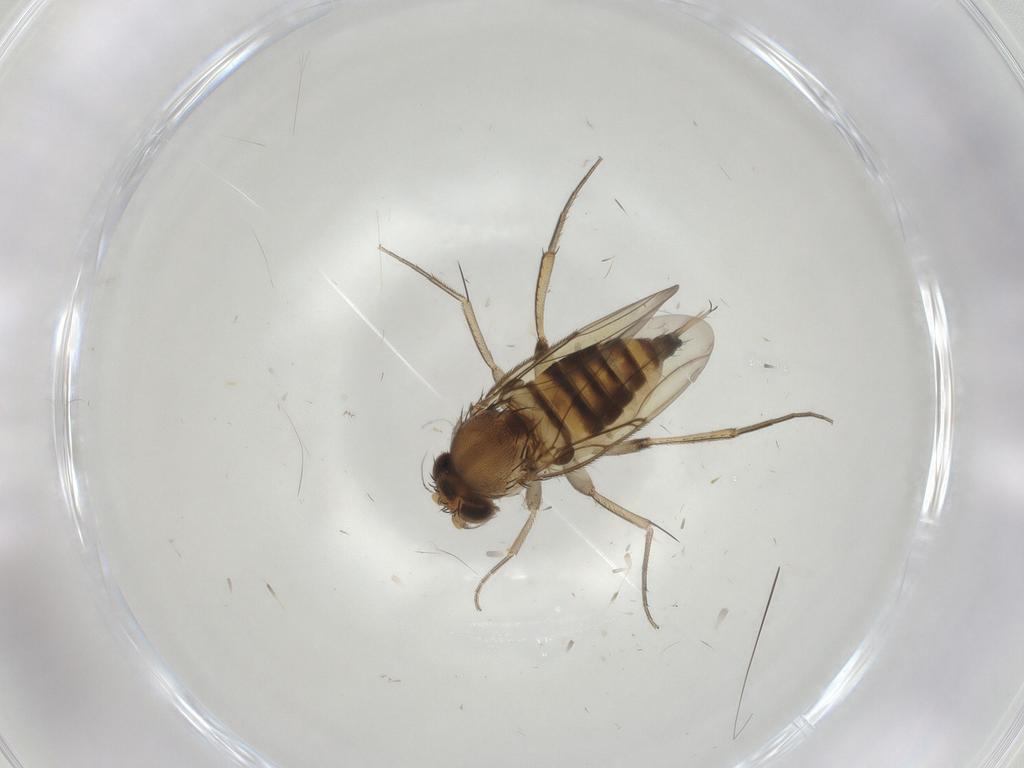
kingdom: Animalia
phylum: Arthropoda
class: Insecta
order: Diptera
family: Phoridae
